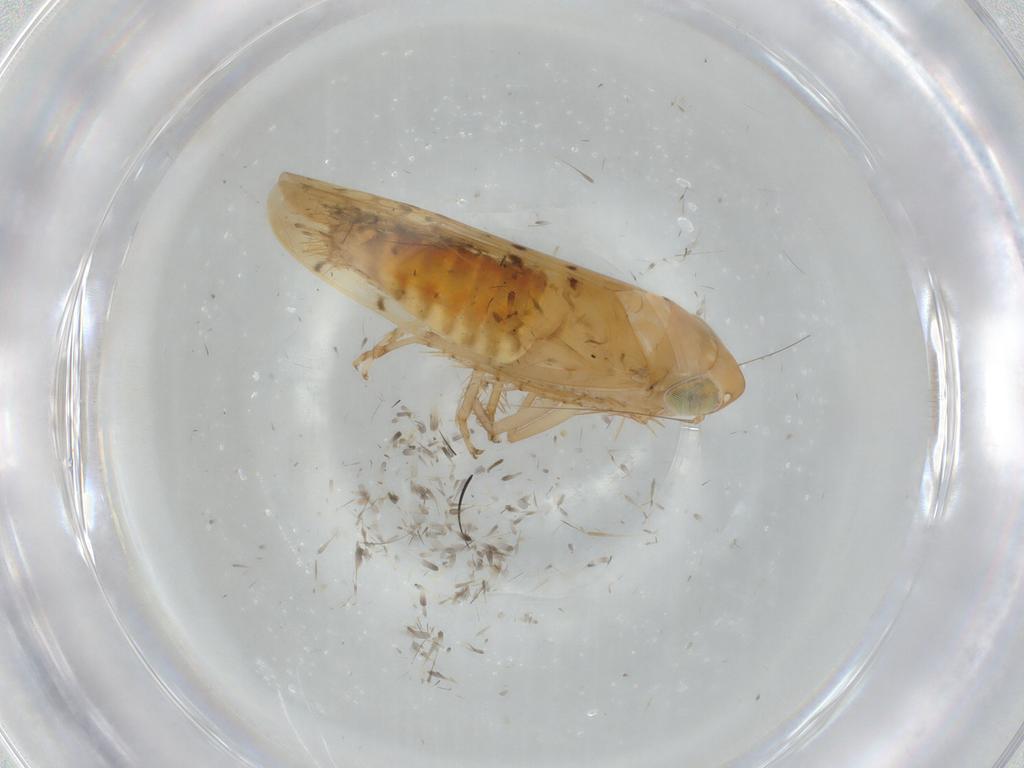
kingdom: Animalia
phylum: Arthropoda
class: Insecta
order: Hemiptera
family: Cicadellidae
